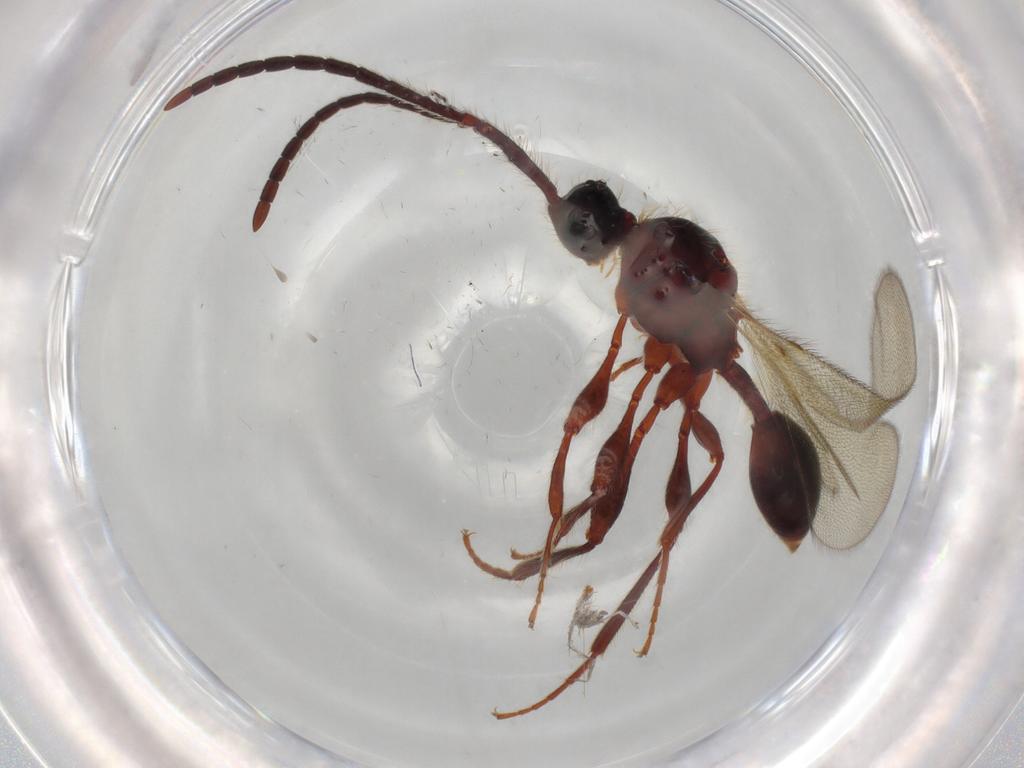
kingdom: Animalia
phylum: Arthropoda
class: Insecta
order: Hymenoptera
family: Diapriidae
